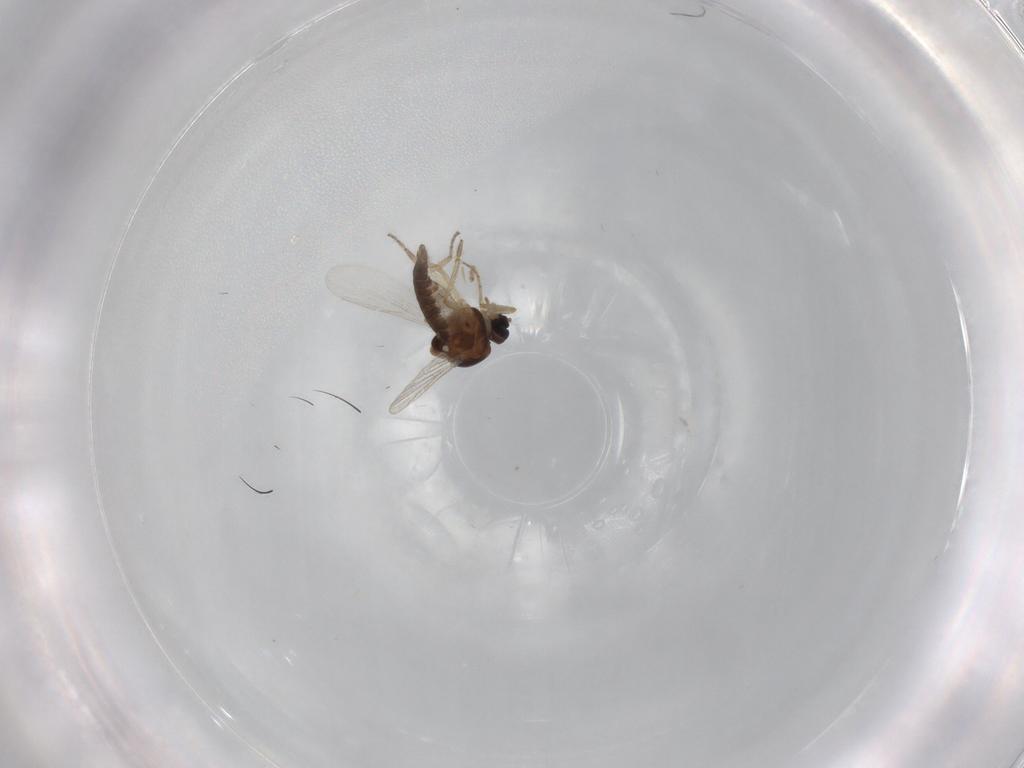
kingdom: Animalia
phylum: Arthropoda
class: Insecta
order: Diptera
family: Ceratopogonidae
